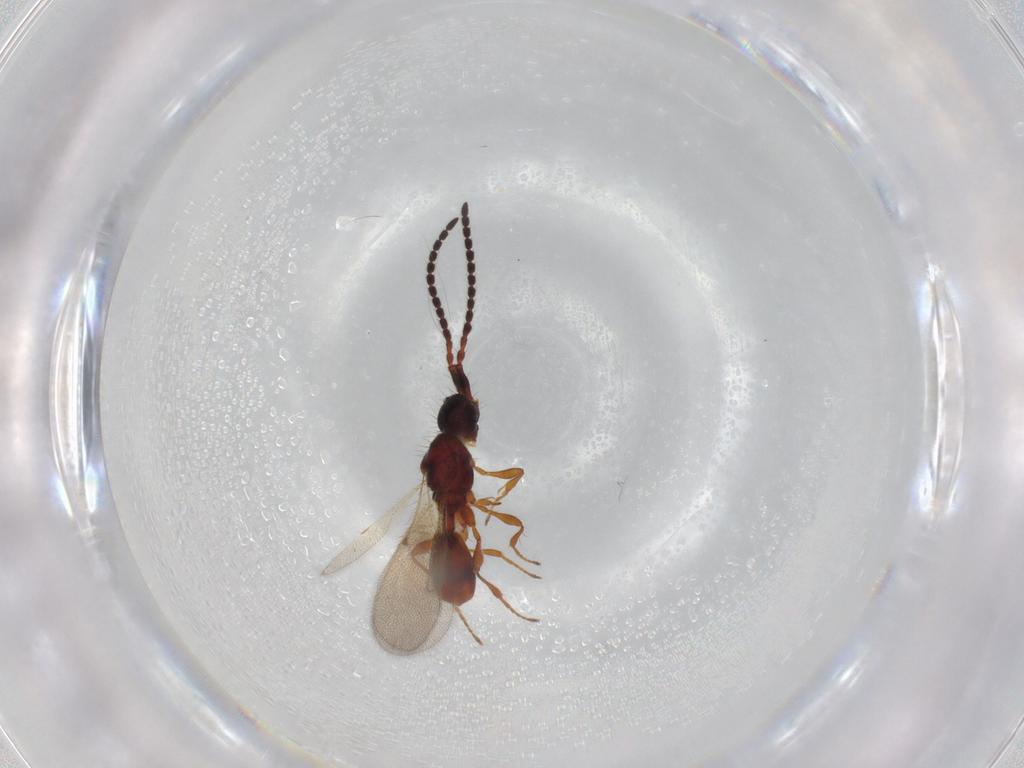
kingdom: Animalia
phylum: Arthropoda
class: Insecta
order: Hymenoptera
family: Diapriidae
